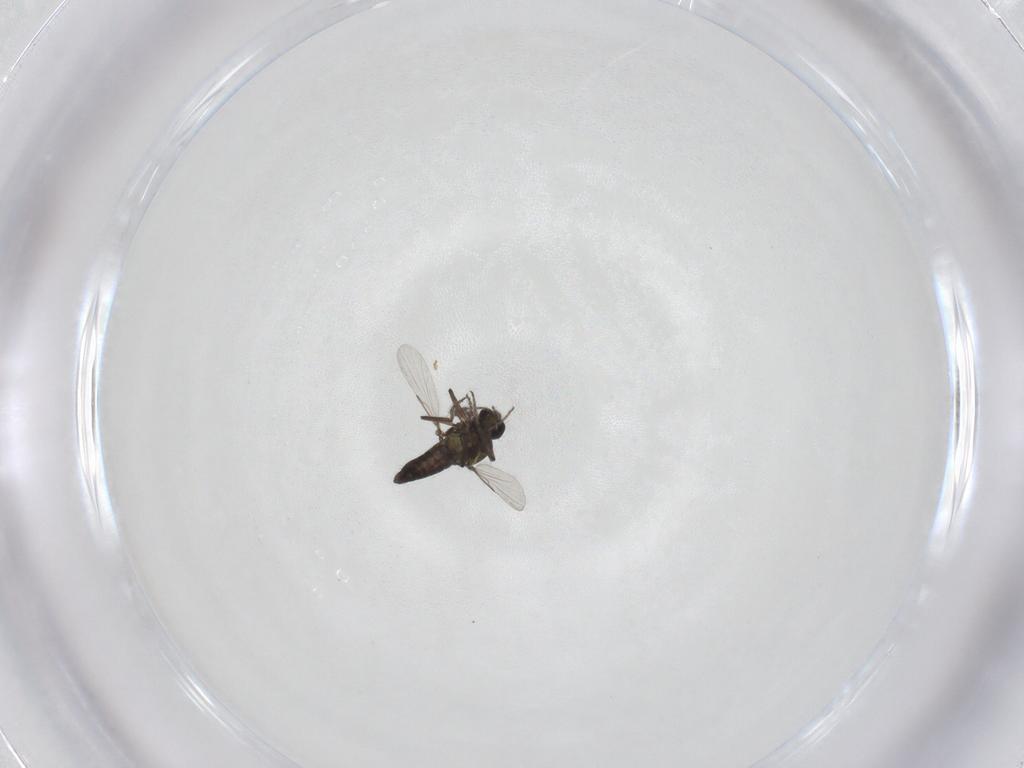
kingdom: Animalia
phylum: Arthropoda
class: Insecta
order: Diptera
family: Ceratopogonidae
